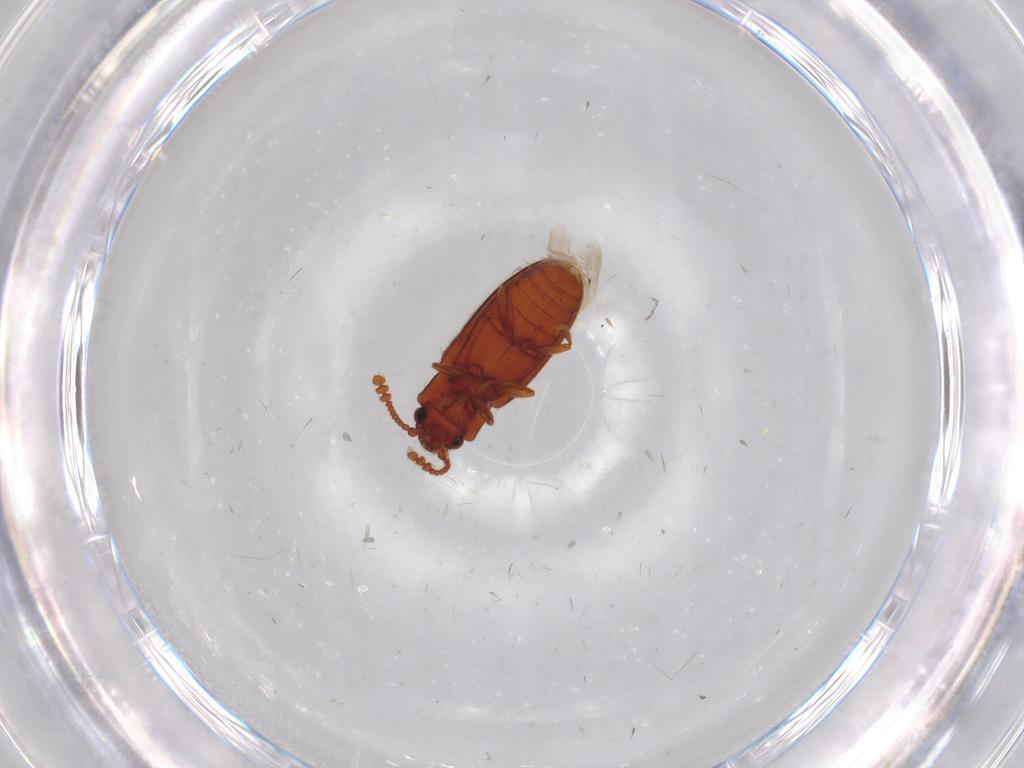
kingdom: Animalia
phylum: Arthropoda
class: Insecta
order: Coleoptera
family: Erotylidae
